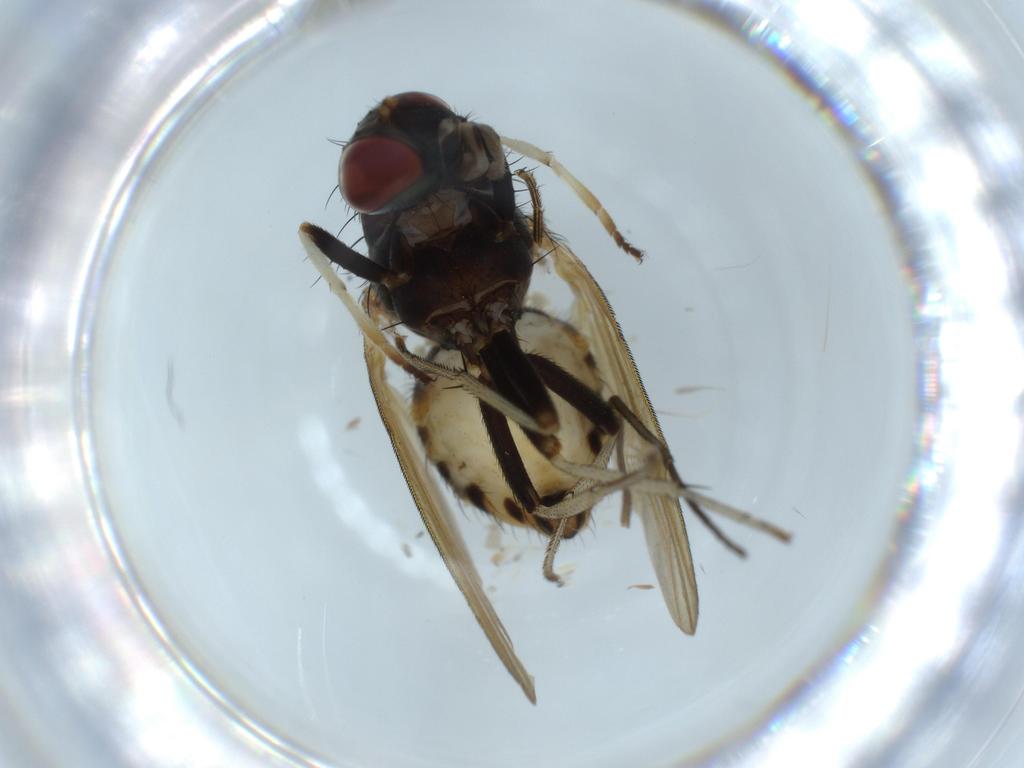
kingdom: Animalia
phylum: Arthropoda
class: Insecta
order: Diptera
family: Sciaridae
